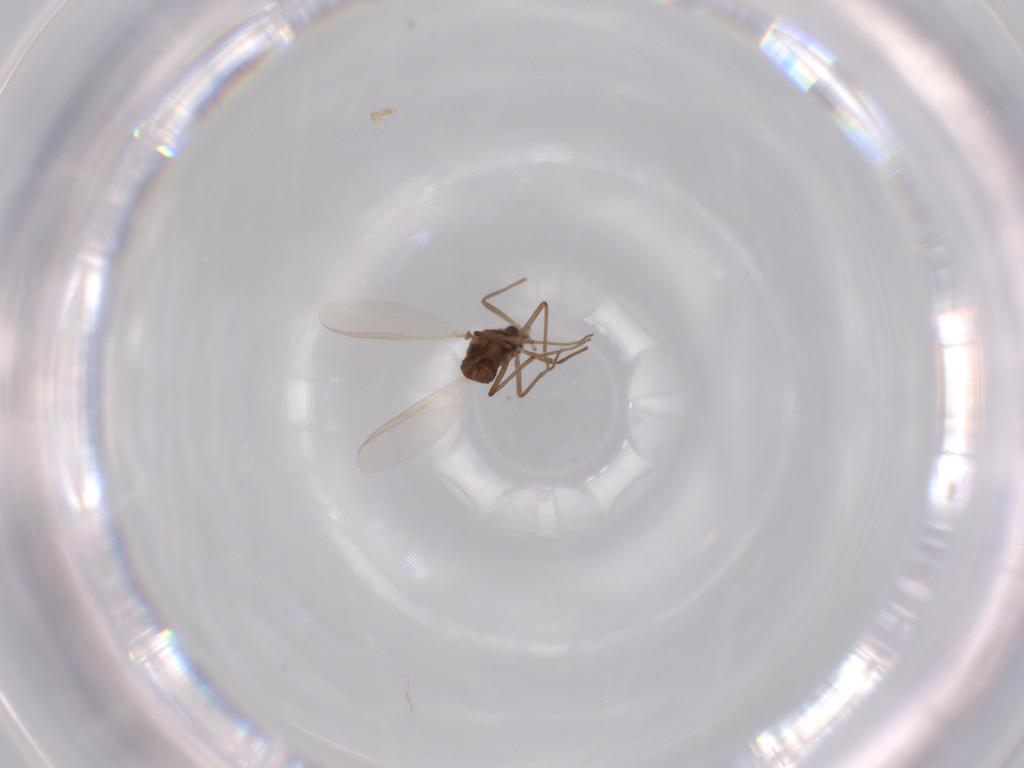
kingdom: Animalia
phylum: Arthropoda
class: Insecta
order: Diptera
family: Chironomidae
